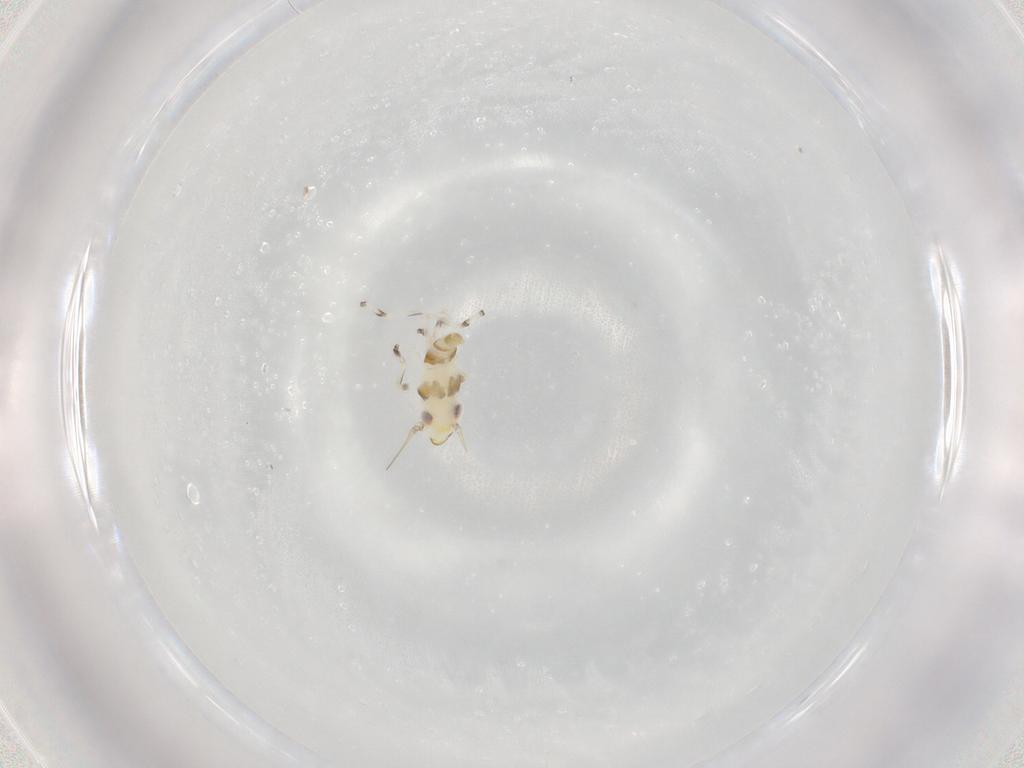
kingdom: Animalia
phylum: Arthropoda
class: Insecta
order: Hemiptera
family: Cicadellidae
